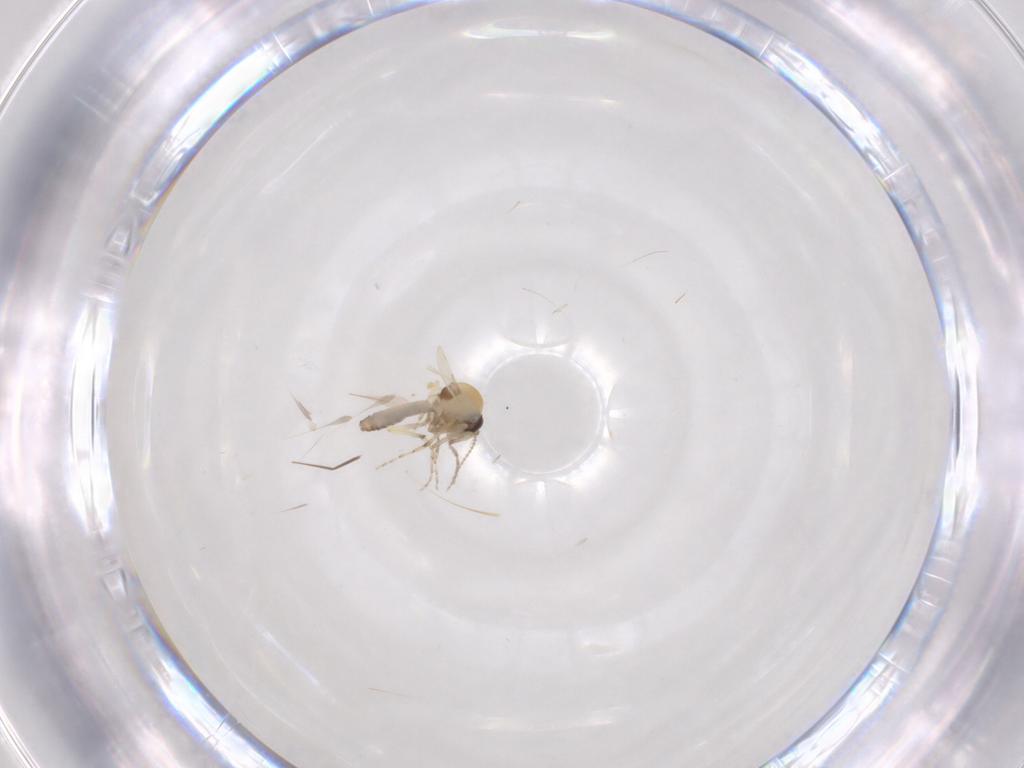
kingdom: Animalia
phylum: Arthropoda
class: Insecta
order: Diptera
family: Ceratopogonidae
